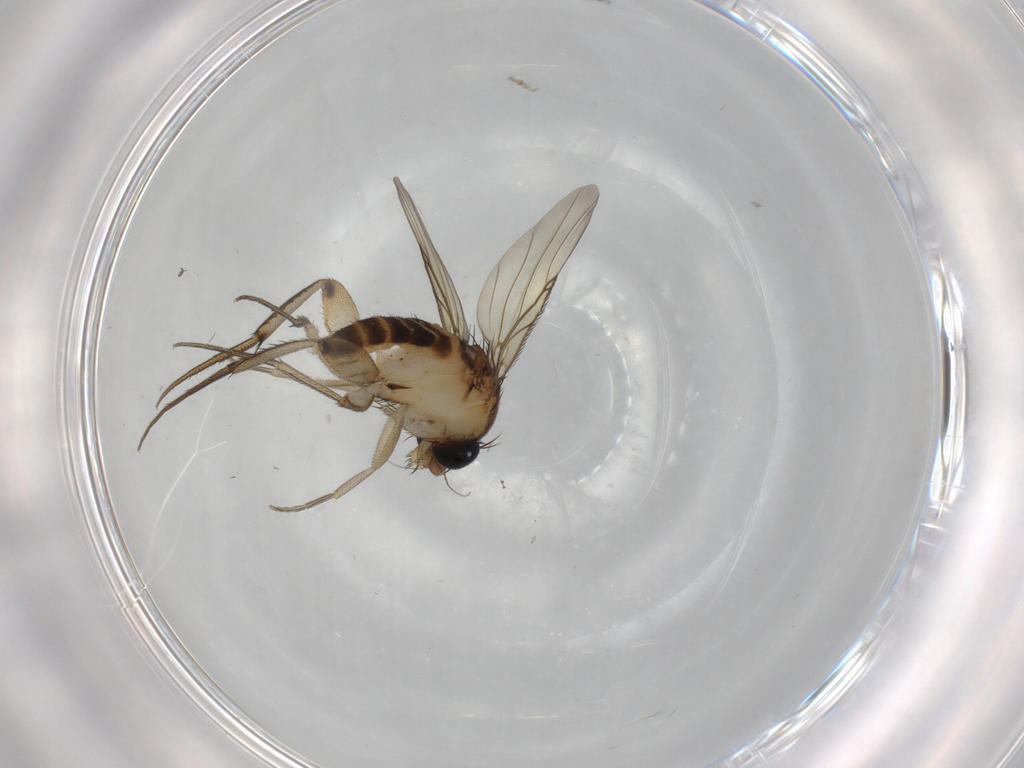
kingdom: Animalia
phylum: Arthropoda
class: Insecta
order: Diptera
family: Phoridae
